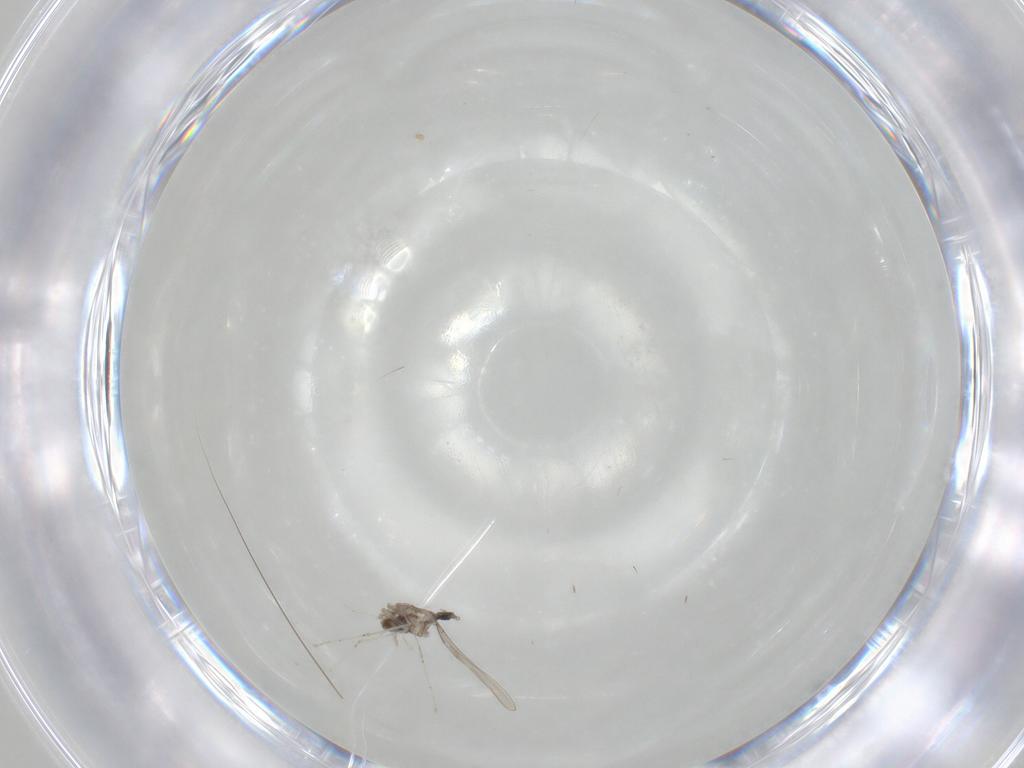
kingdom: Animalia
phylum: Arthropoda
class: Insecta
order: Diptera
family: Cecidomyiidae
